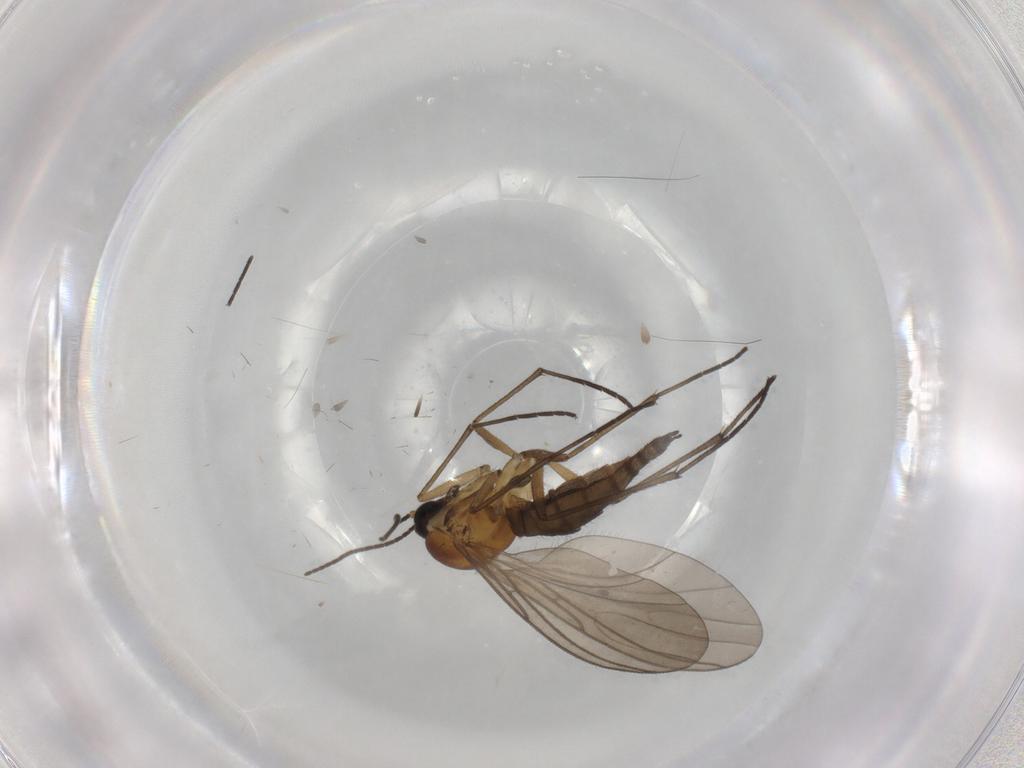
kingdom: Animalia
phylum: Arthropoda
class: Insecta
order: Diptera
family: Sciaridae
